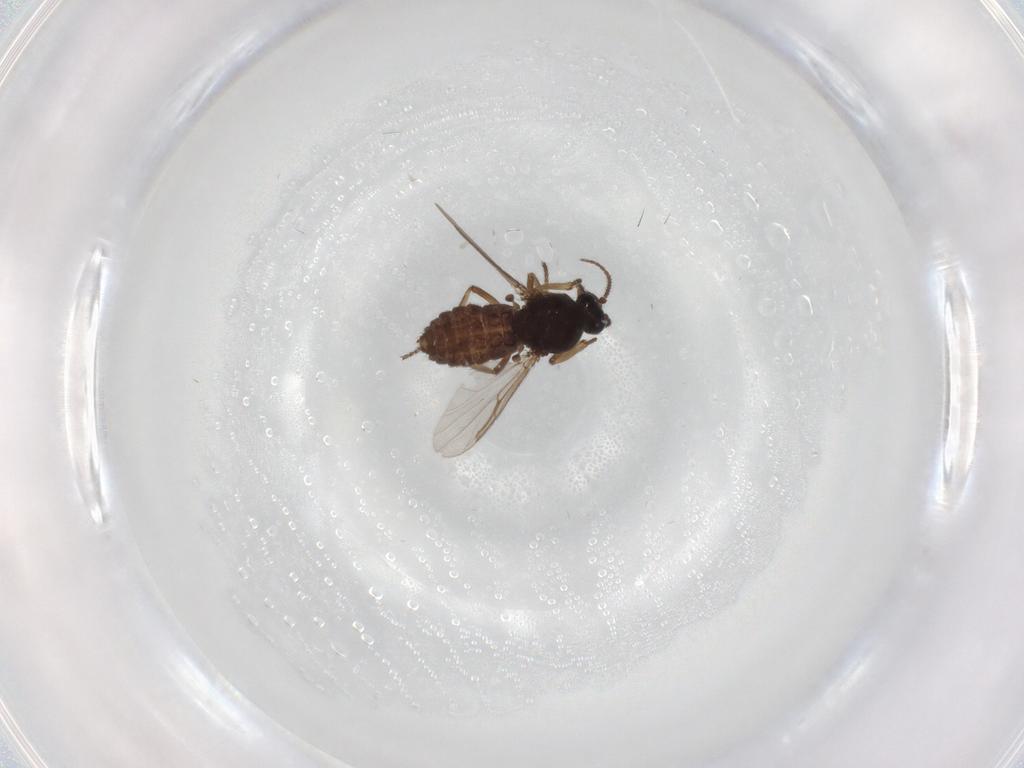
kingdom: Animalia
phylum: Arthropoda
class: Insecta
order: Diptera
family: Ceratopogonidae
